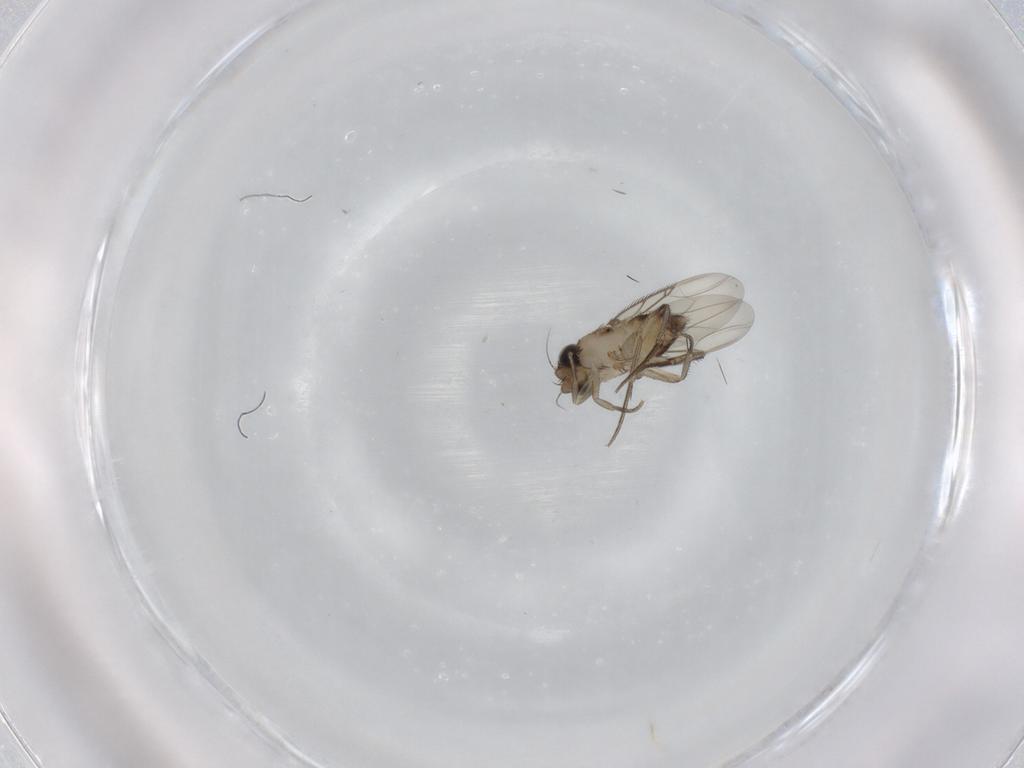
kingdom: Animalia
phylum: Arthropoda
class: Insecta
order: Diptera
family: Phoridae
